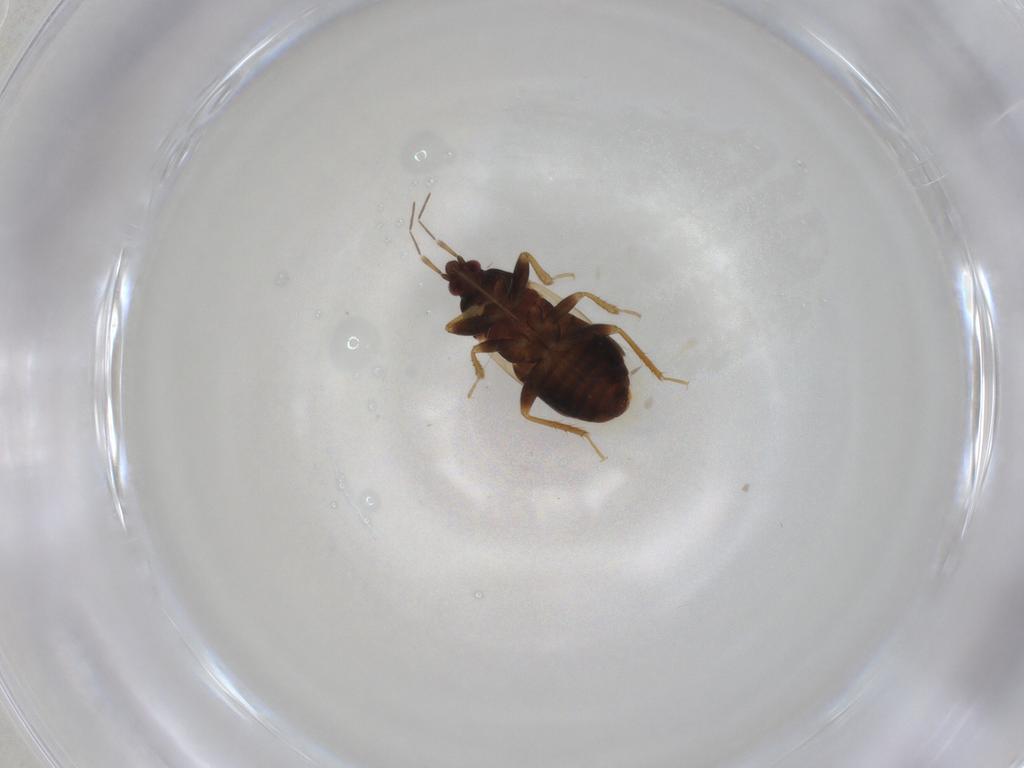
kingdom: Animalia
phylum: Arthropoda
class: Insecta
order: Hemiptera
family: Anthocoridae
